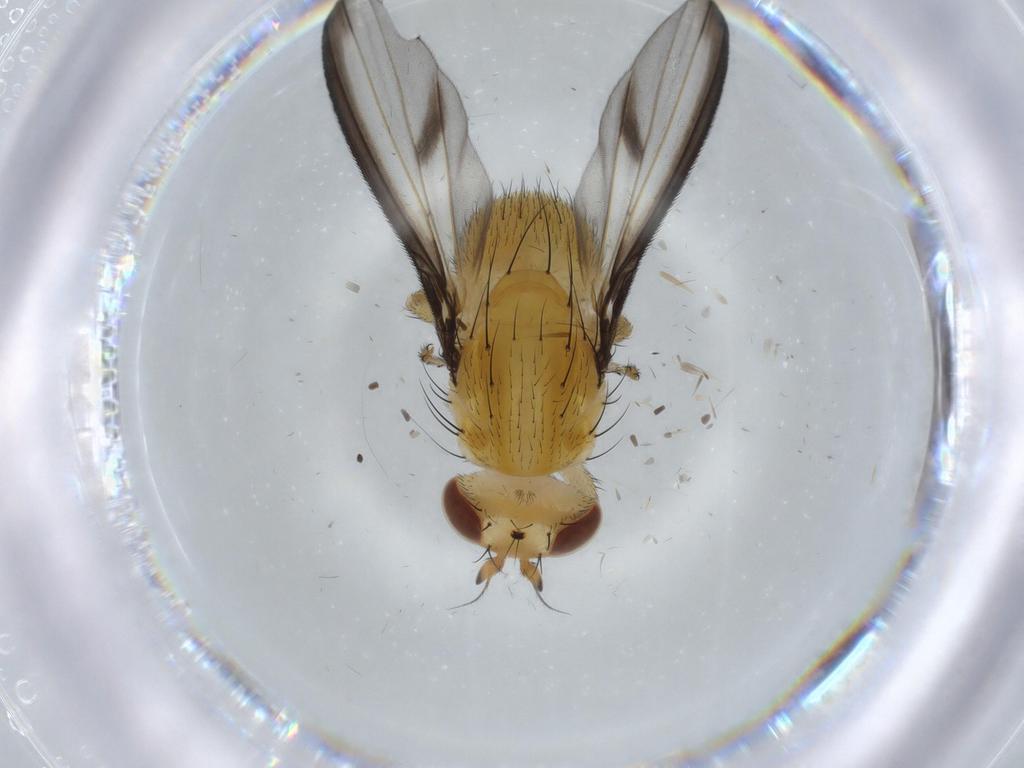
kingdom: Animalia
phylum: Arthropoda
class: Insecta
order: Diptera
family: Lauxaniidae
